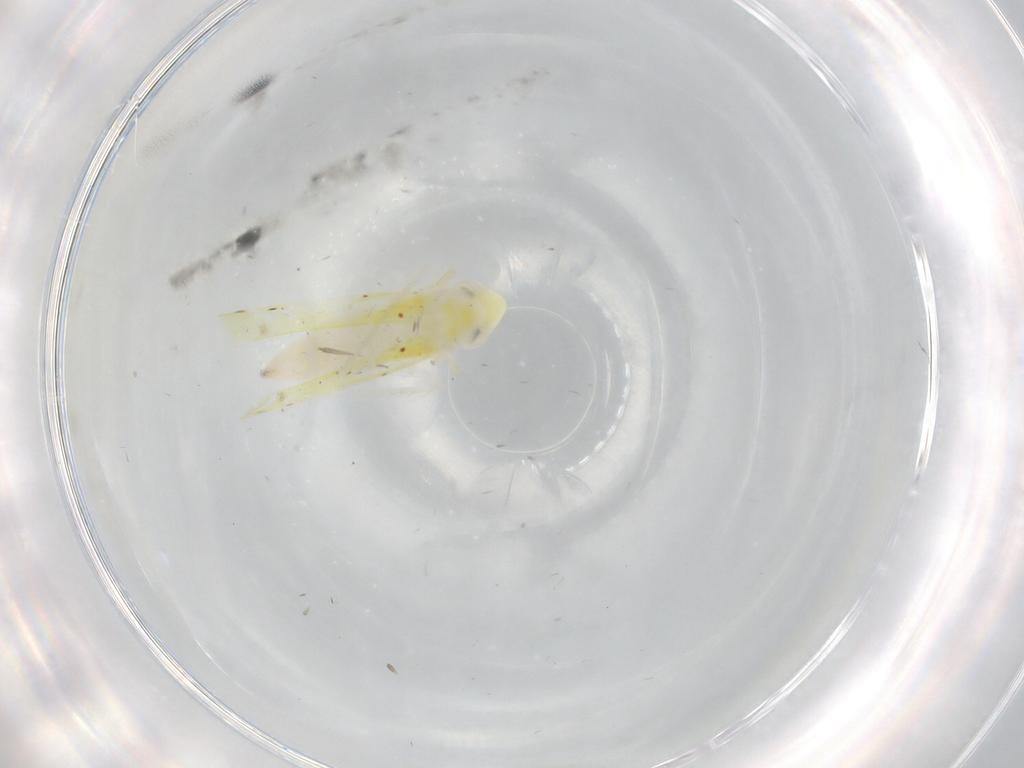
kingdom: Animalia
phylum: Arthropoda
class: Insecta
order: Hemiptera
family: Cicadellidae
